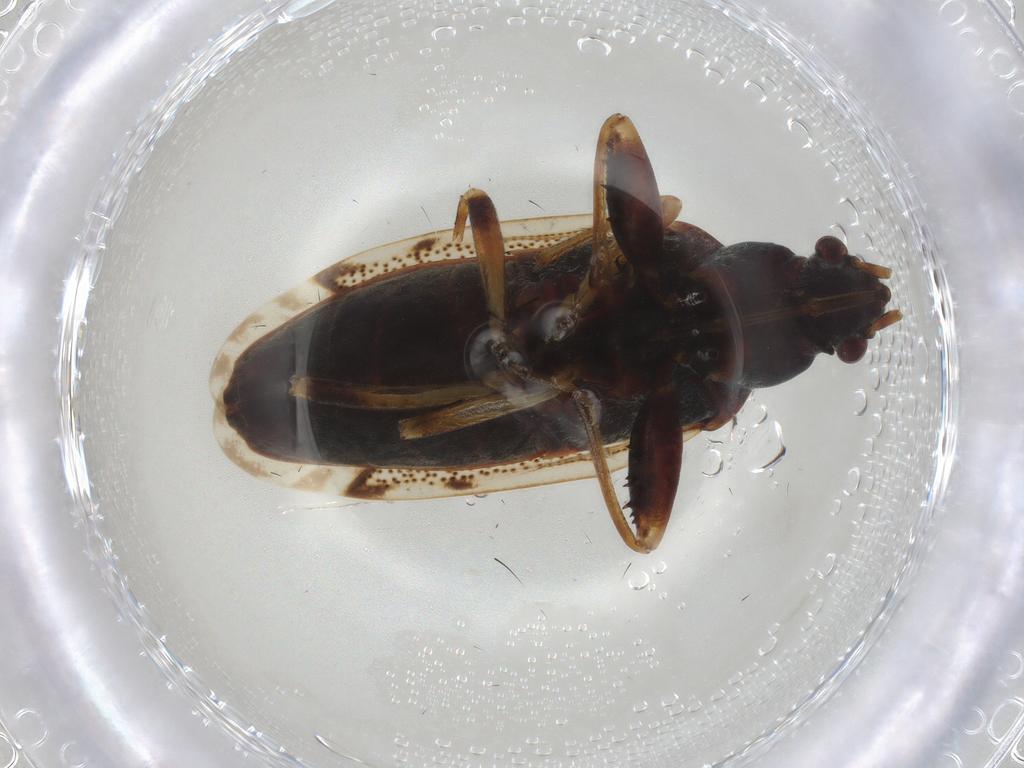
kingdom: Animalia
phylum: Arthropoda
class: Insecta
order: Hemiptera
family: Rhyparochromidae
